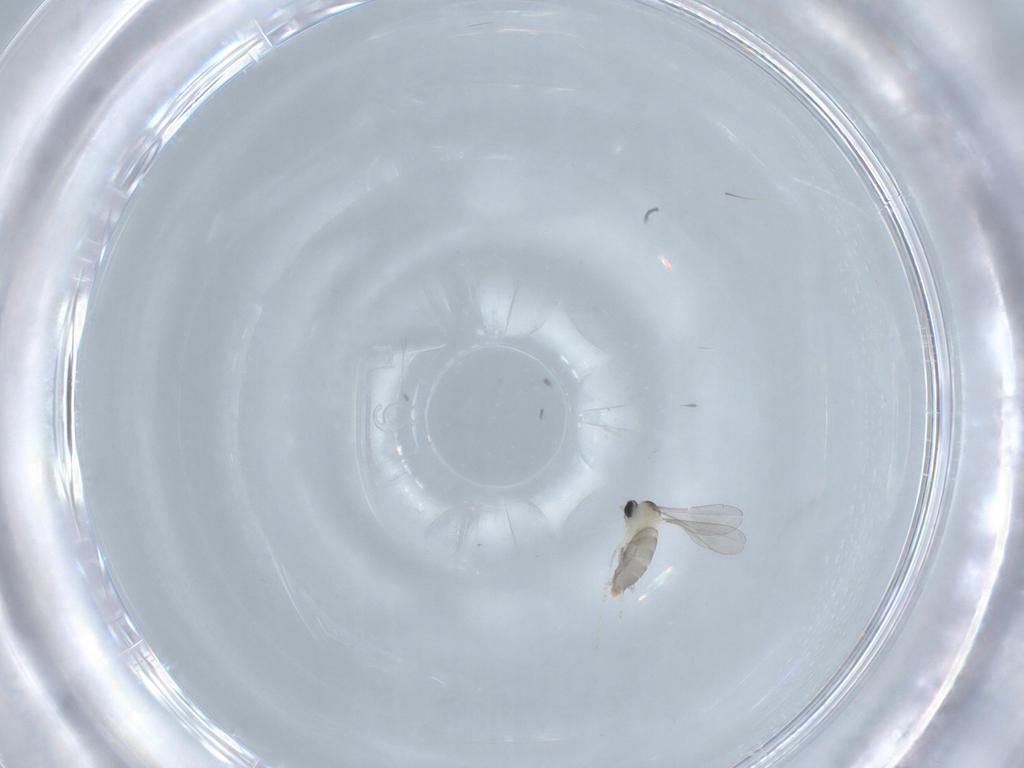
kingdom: Animalia
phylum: Arthropoda
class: Insecta
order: Diptera
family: Cecidomyiidae
